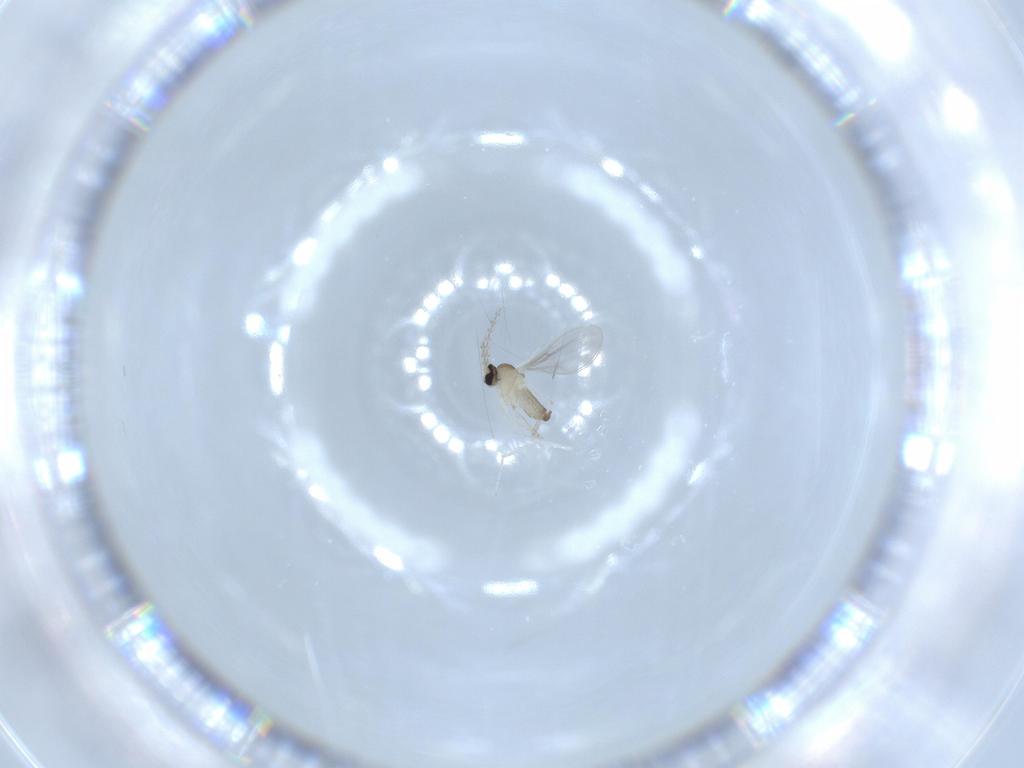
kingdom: Animalia
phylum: Arthropoda
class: Insecta
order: Diptera
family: Cecidomyiidae
